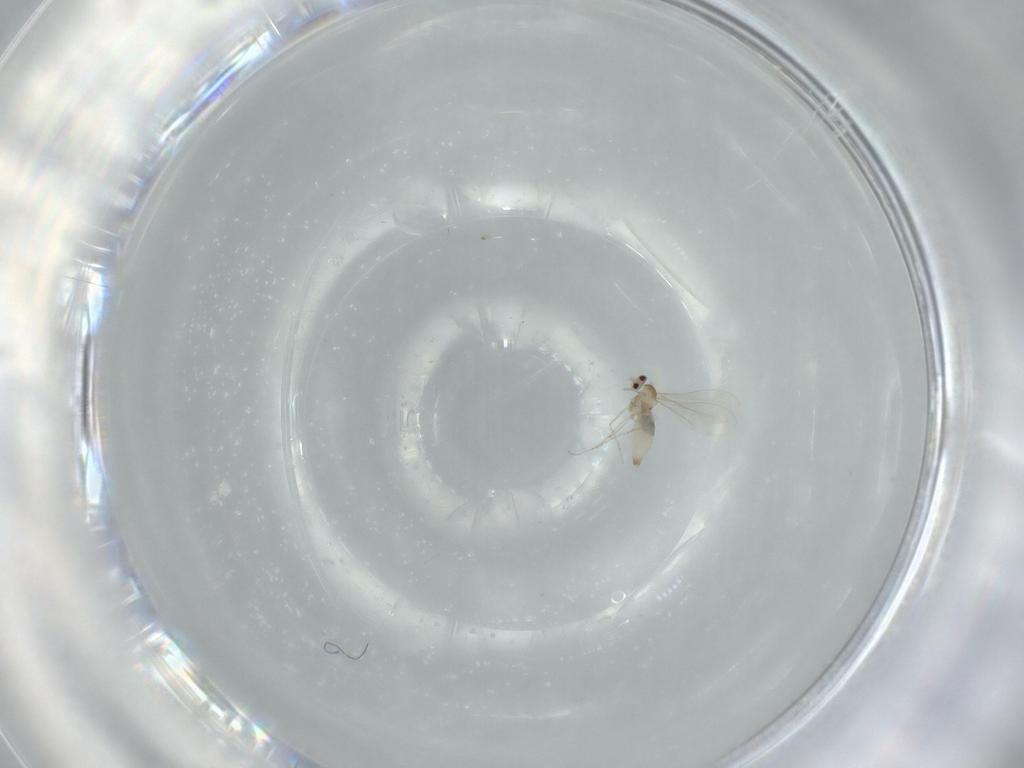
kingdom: Animalia
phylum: Arthropoda
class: Insecta
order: Diptera
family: Cecidomyiidae
